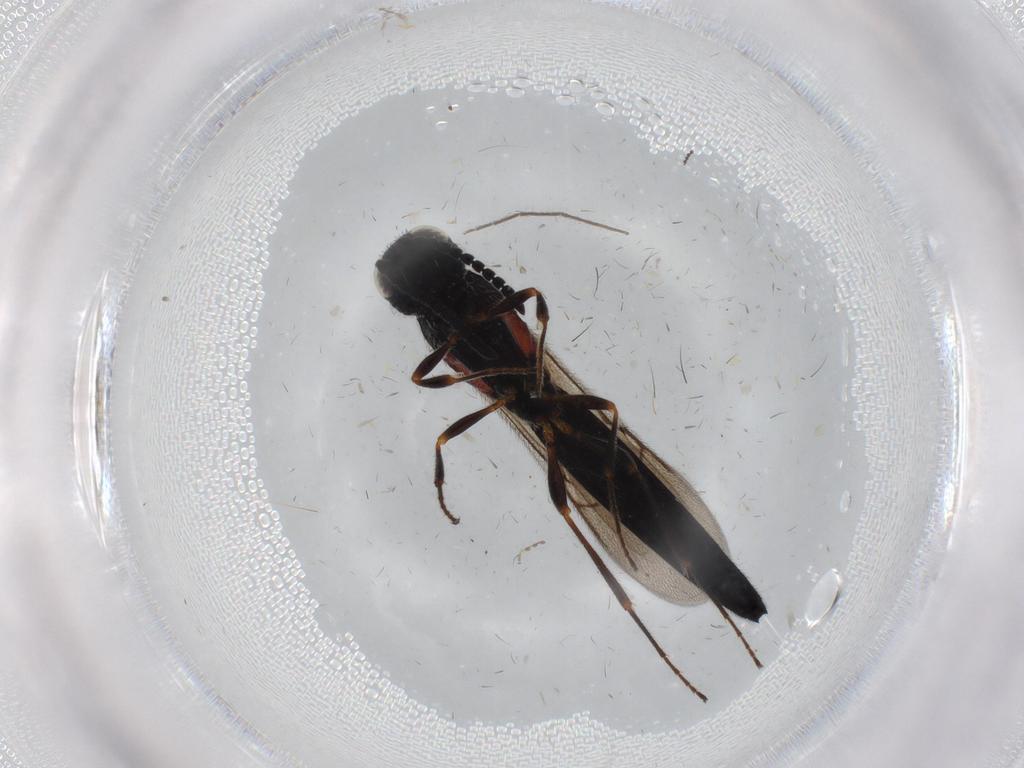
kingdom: Animalia
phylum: Arthropoda
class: Insecta
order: Hymenoptera
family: Scelionidae
